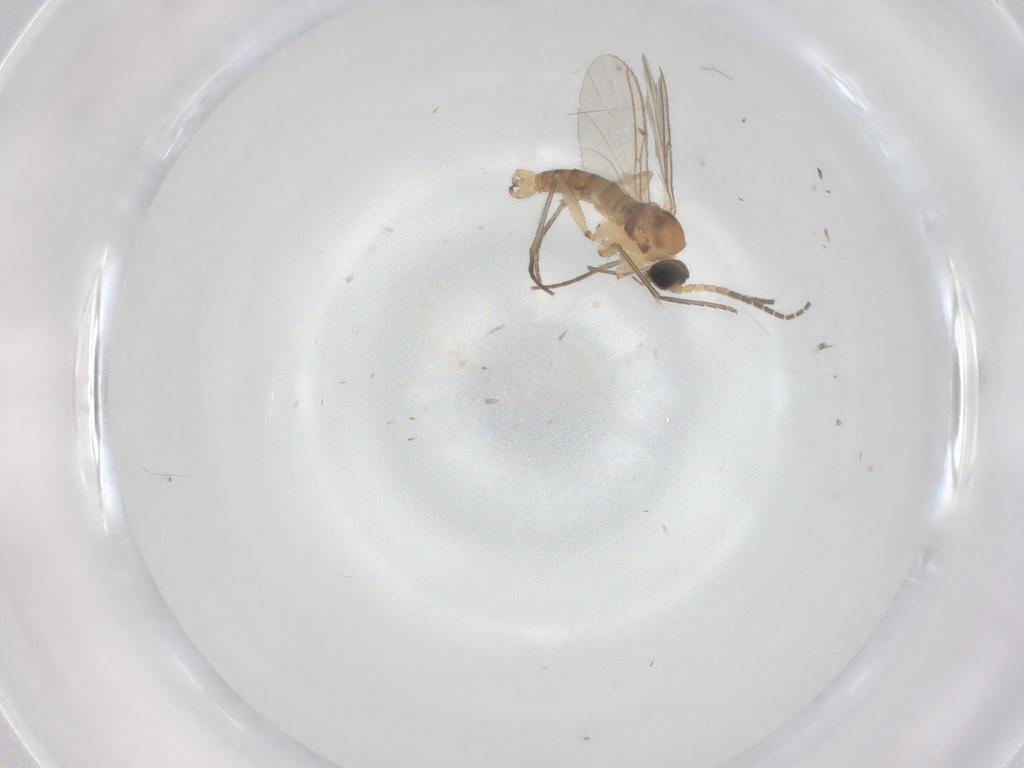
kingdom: Animalia
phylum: Arthropoda
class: Insecta
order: Diptera
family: Sciaridae
